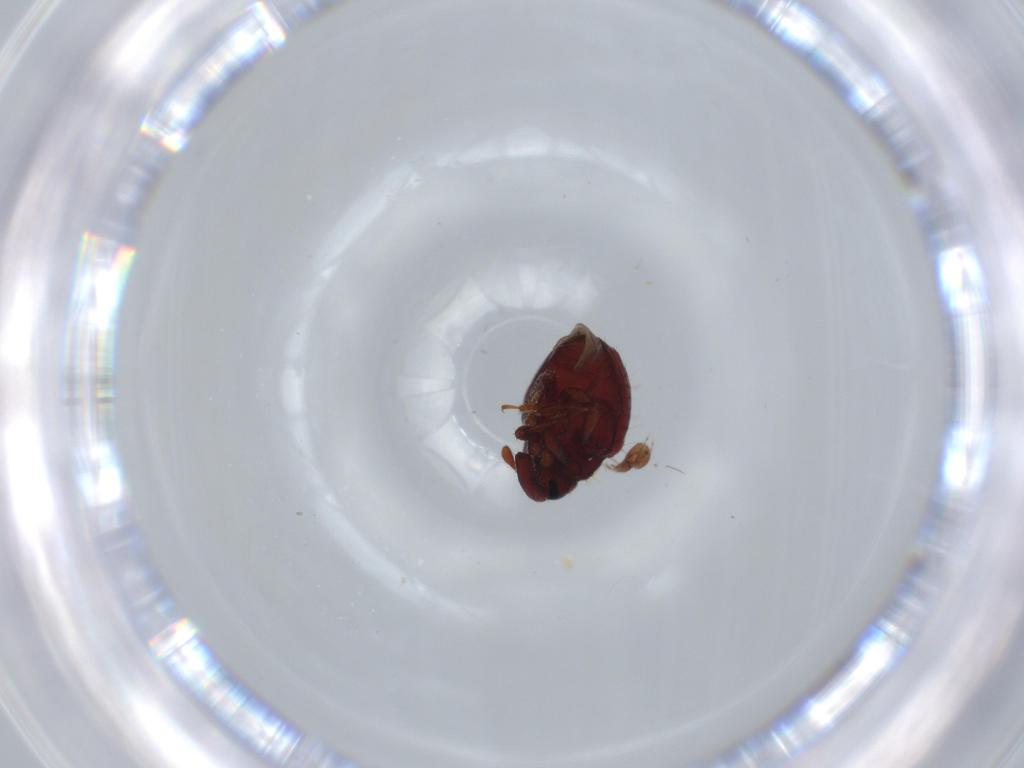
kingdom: Animalia
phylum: Arthropoda
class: Insecta
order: Coleoptera
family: Curculionidae
